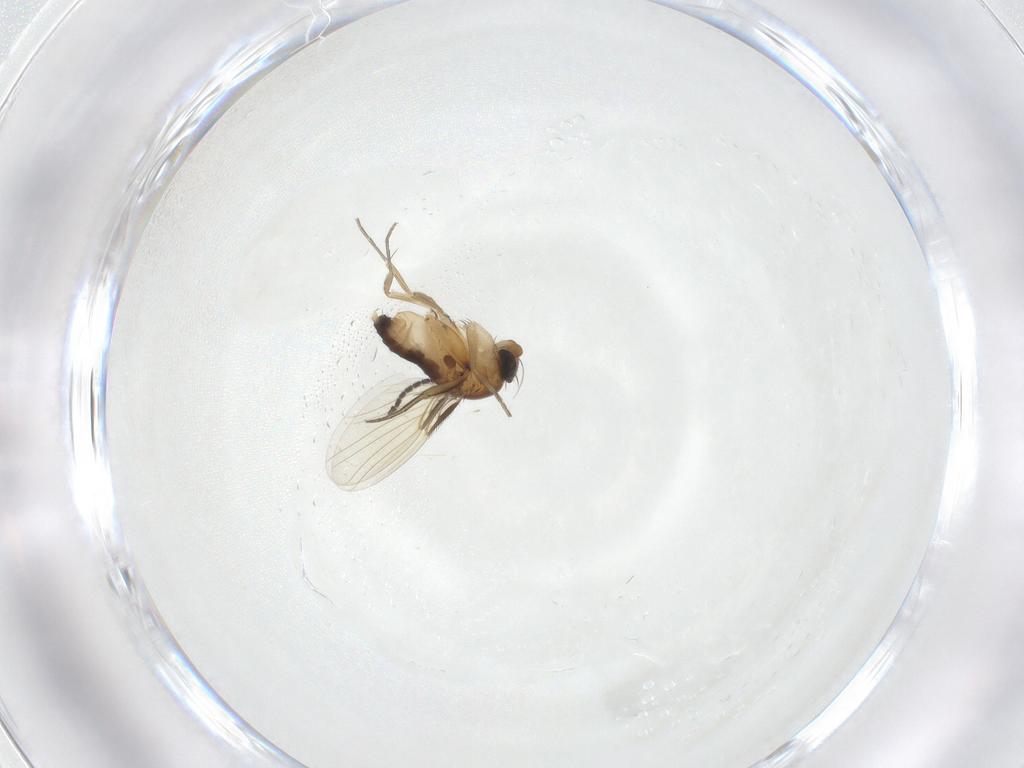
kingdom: Animalia
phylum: Arthropoda
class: Insecta
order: Diptera
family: Phoridae
